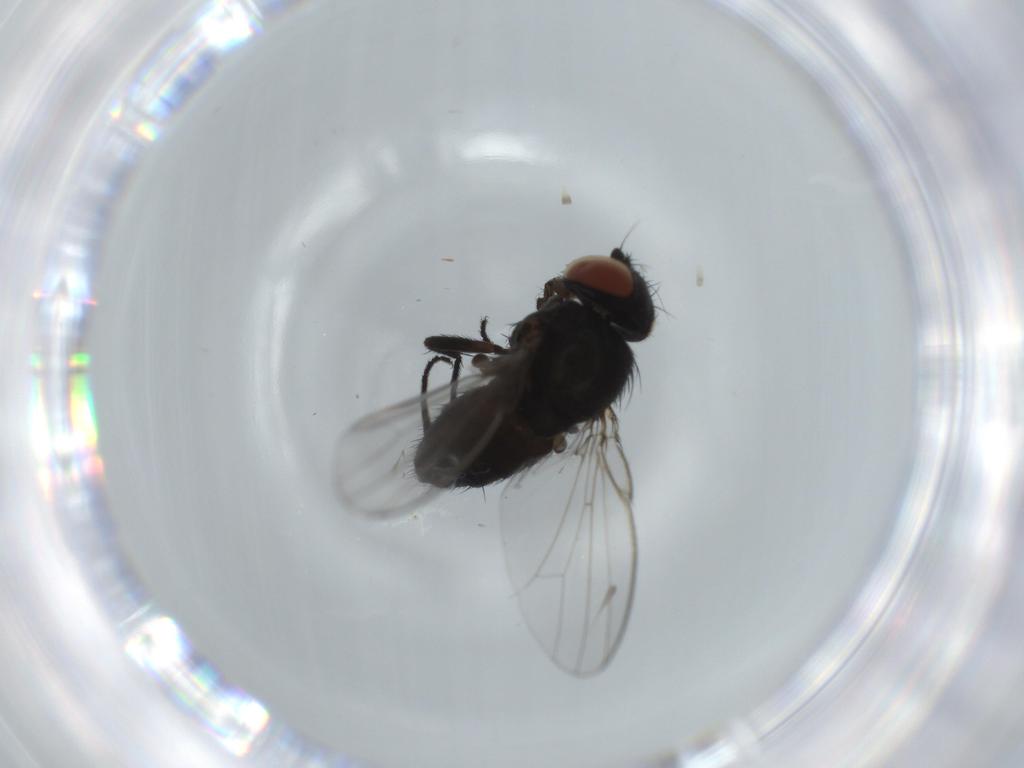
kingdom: Animalia
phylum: Arthropoda
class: Insecta
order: Diptera
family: Milichiidae
